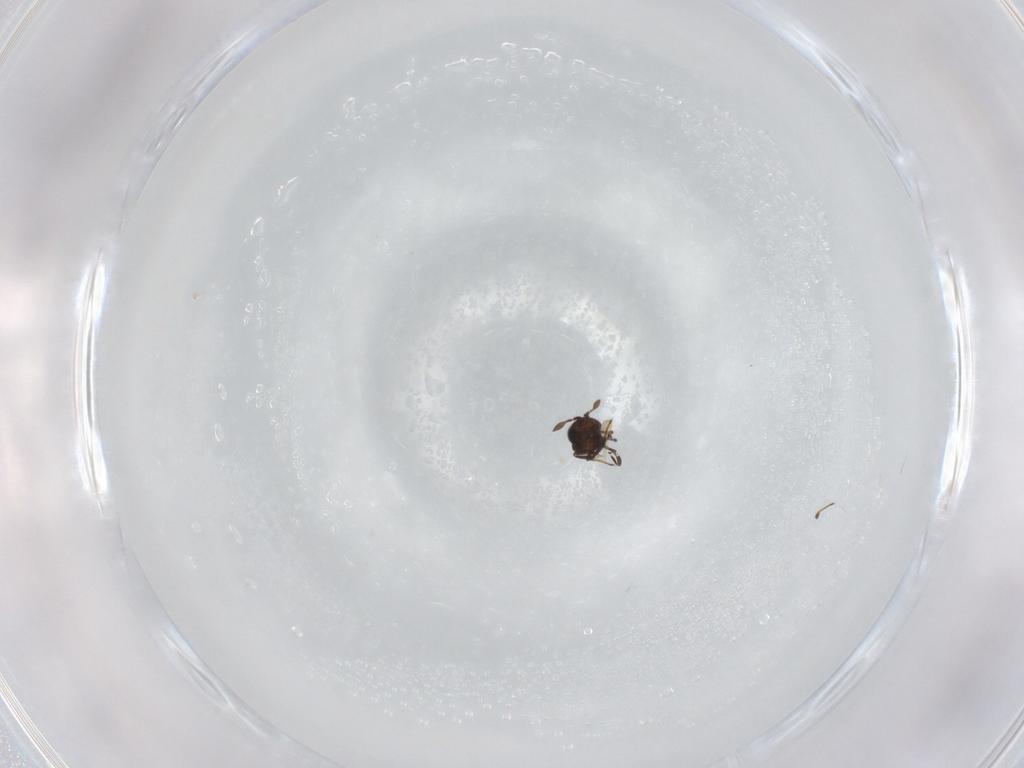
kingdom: Animalia
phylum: Arthropoda
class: Insecta
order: Hymenoptera
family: Scelionidae
